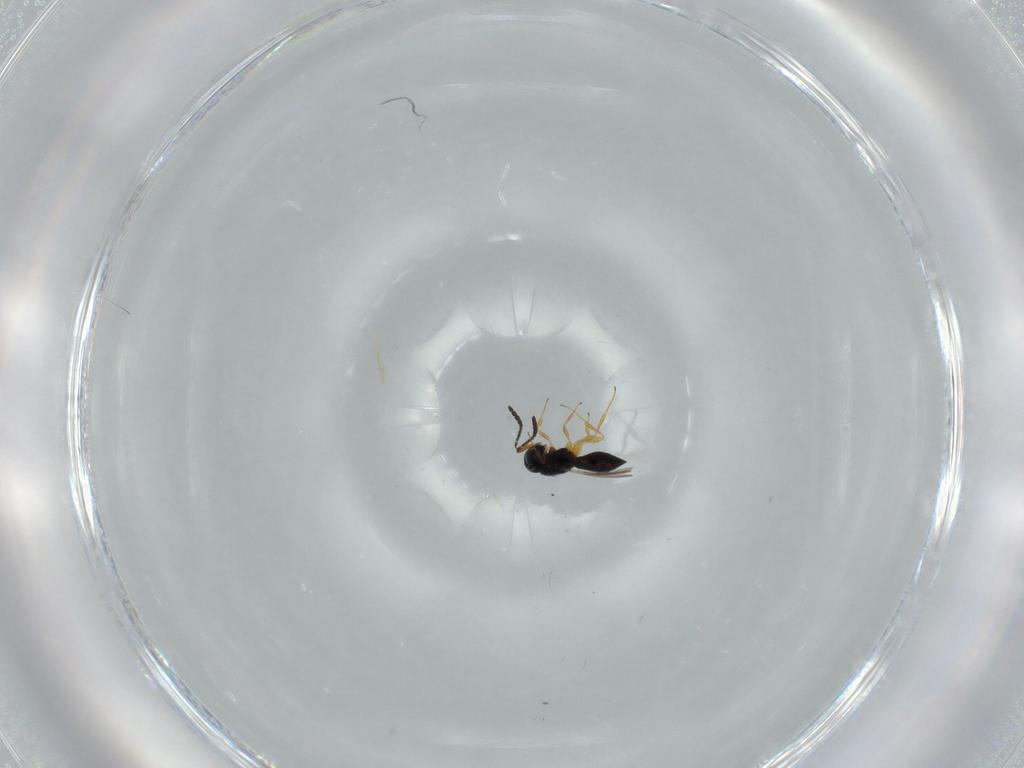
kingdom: Animalia
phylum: Arthropoda
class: Insecta
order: Hymenoptera
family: Scelionidae
